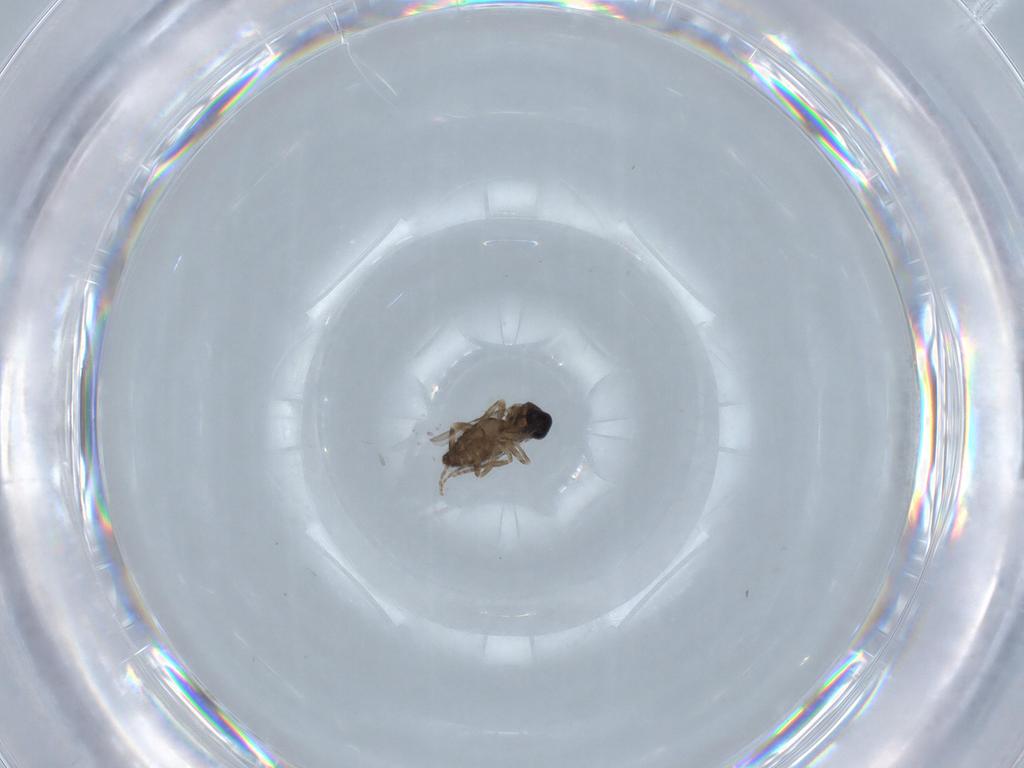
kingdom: Animalia
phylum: Arthropoda
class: Insecta
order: Diptera
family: Ceratopogonidae
